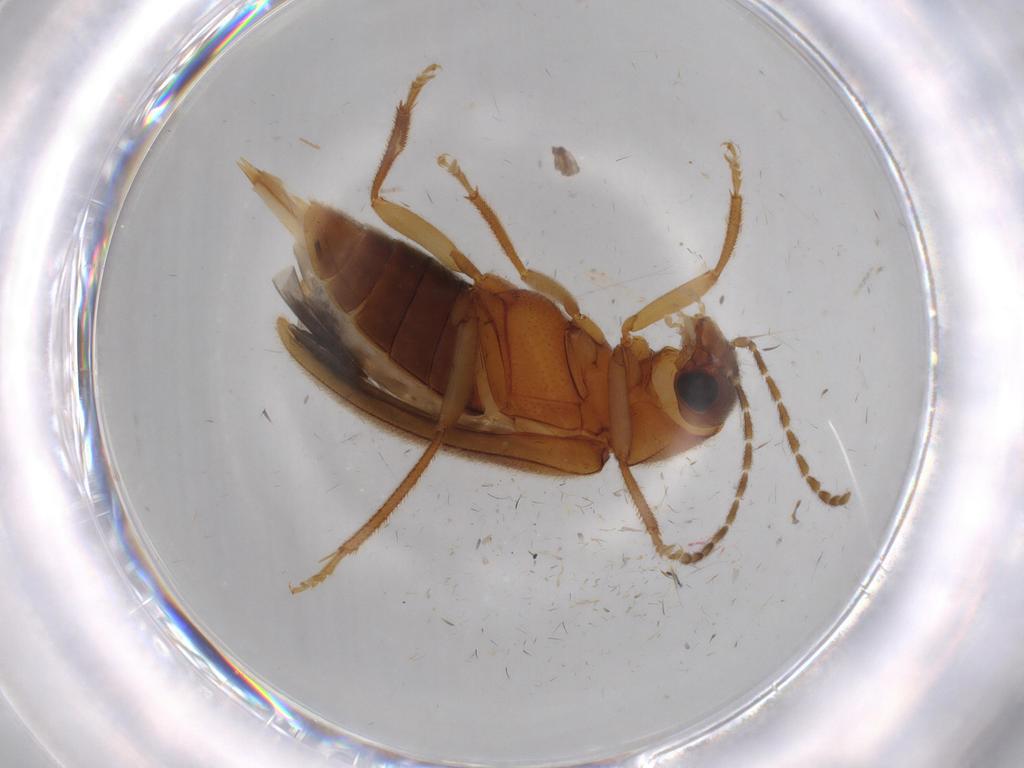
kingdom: Animalia
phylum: Arthropoda
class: Insecta
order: Coleoptera
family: Ptilodactylidae
